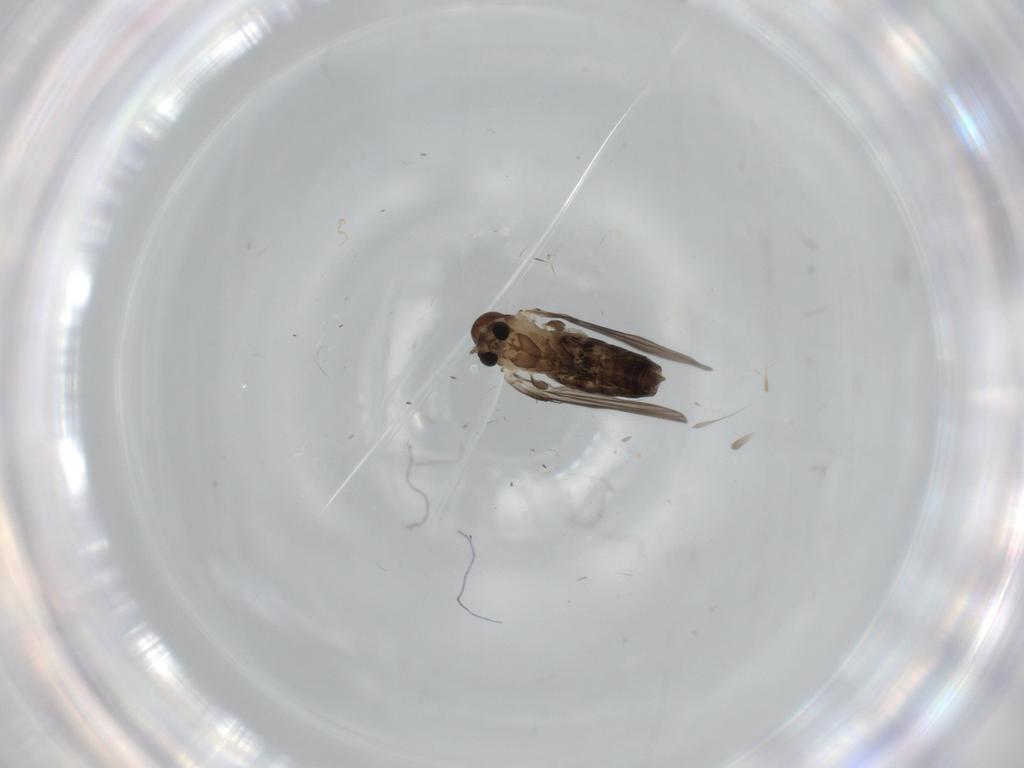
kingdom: Animalia
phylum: Arthropoda
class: Insecta
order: Diptera
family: Psychodidae
